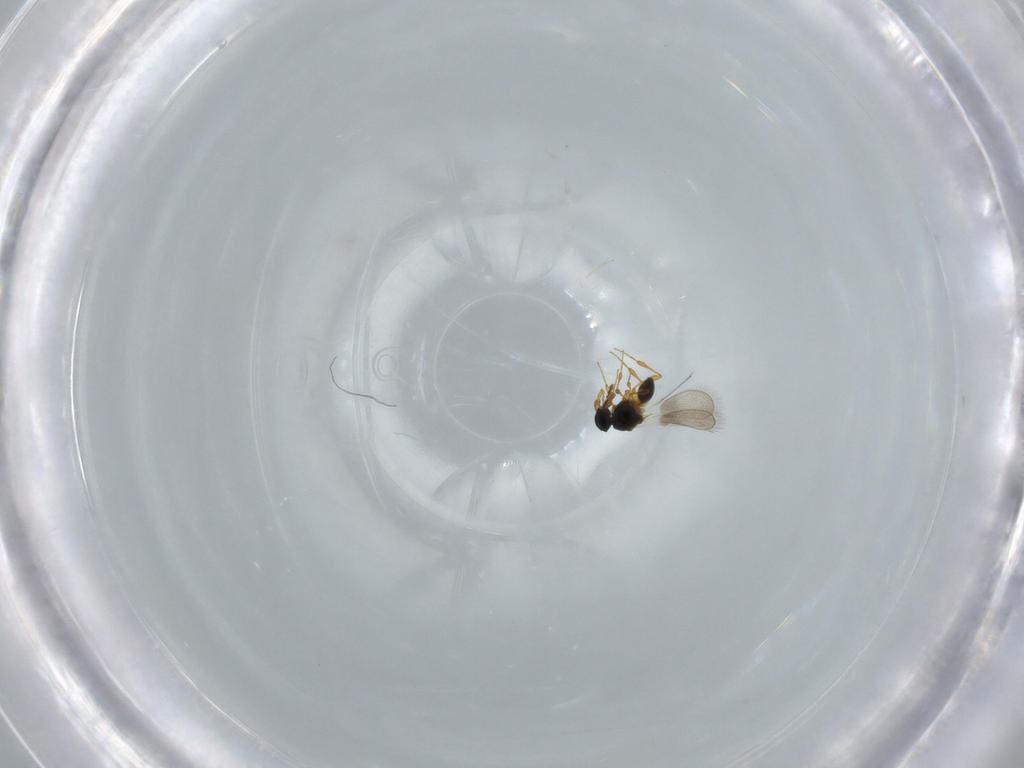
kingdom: Animalia
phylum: Arthropoda
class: Insecta
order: Hymenoptera
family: Platygastridae
